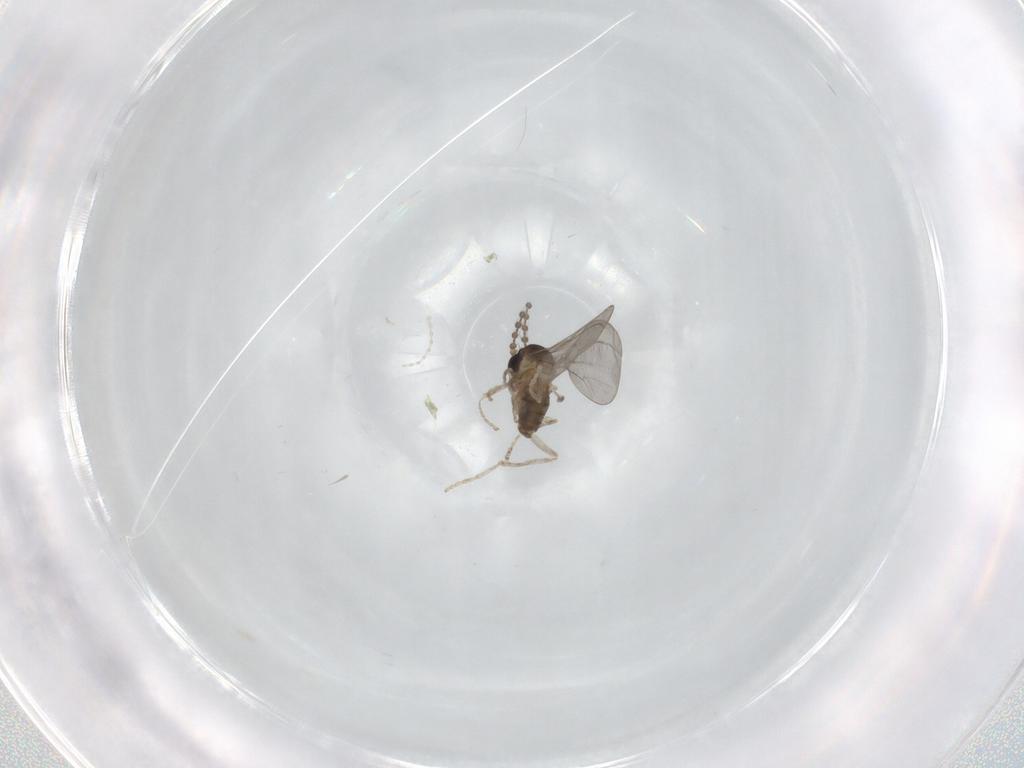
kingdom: Animalia
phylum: Arthropoda
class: Insecta
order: Diptera
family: Cecidomyiidae
